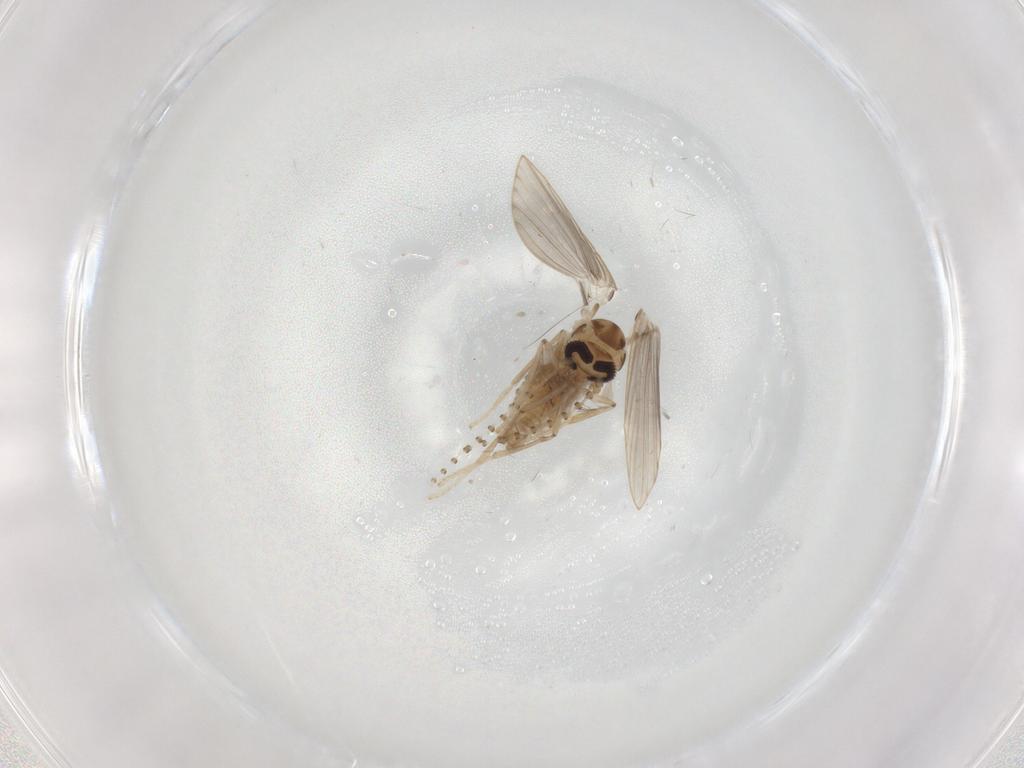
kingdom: Animalia
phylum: Arthropoda
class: Insecta
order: Diptera
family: Psychodidae
